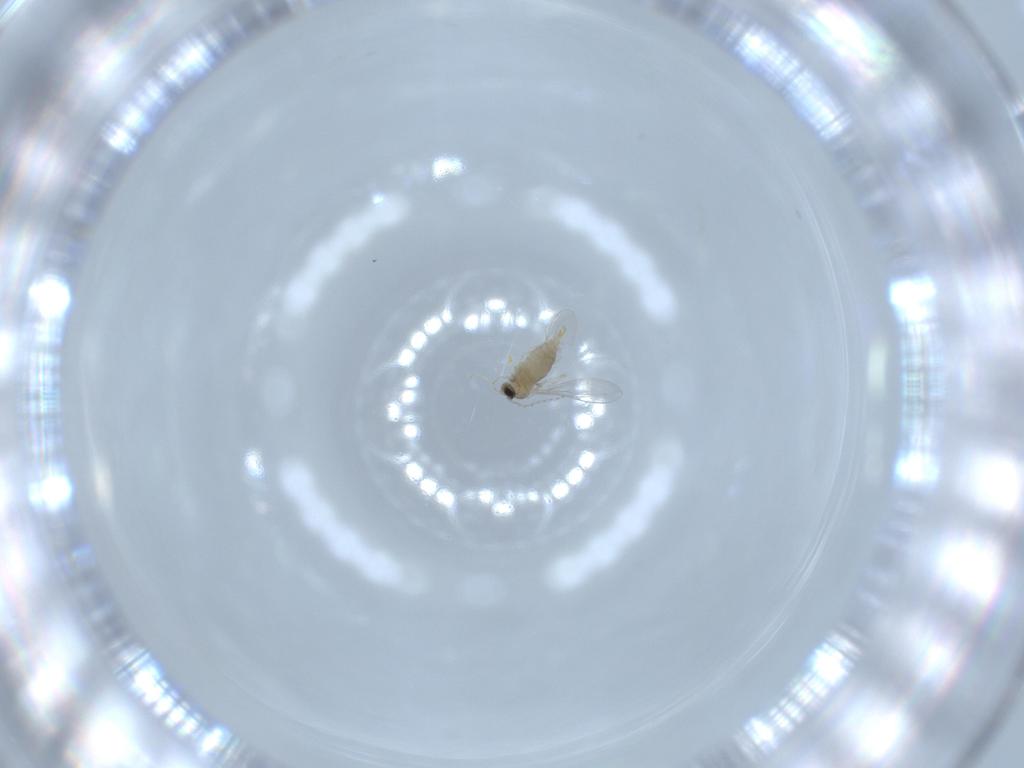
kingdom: Animalia
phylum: Arthropoda
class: Insecta
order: Diptera
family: Cecidomyiidae
